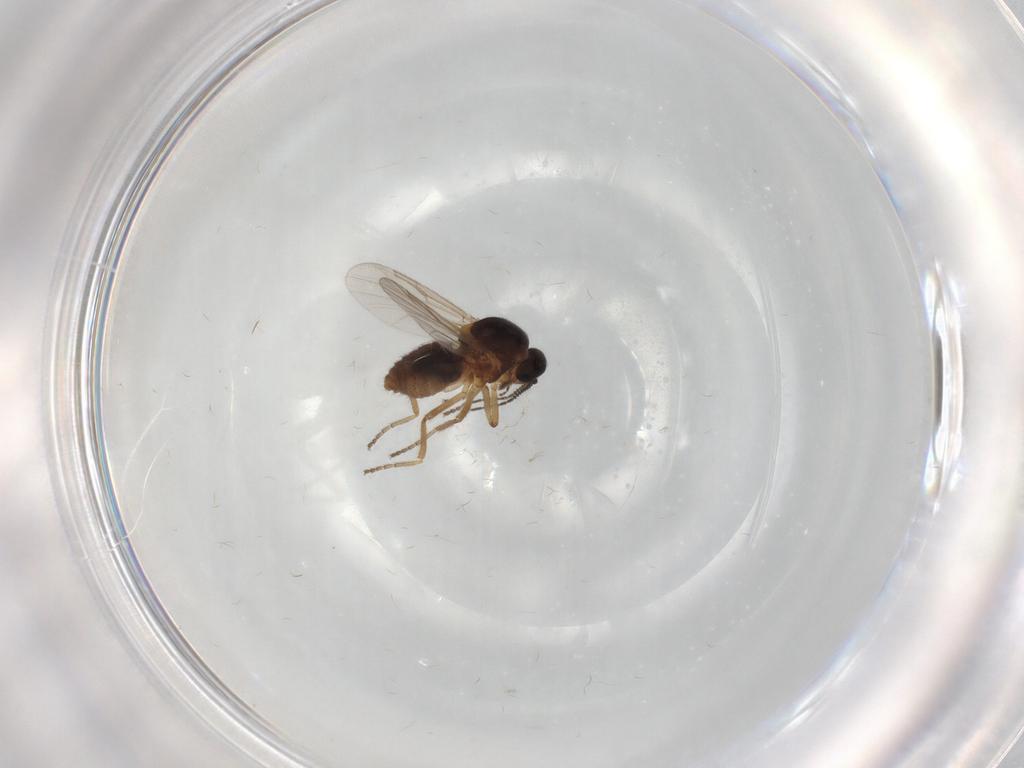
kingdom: Animalia
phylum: Arthropoda
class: Insecta
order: Diptera
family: Ceratopogonidae
